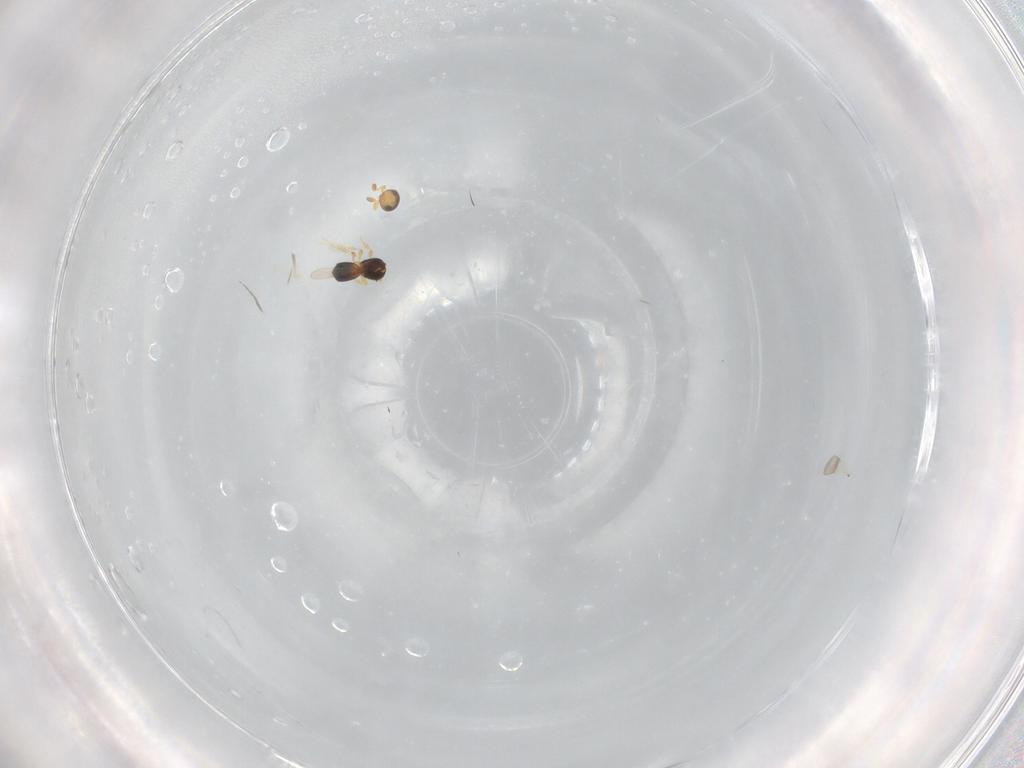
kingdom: Animalia
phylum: Arthropoda
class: Insecta
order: Hymenoptera
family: Platygastridae
